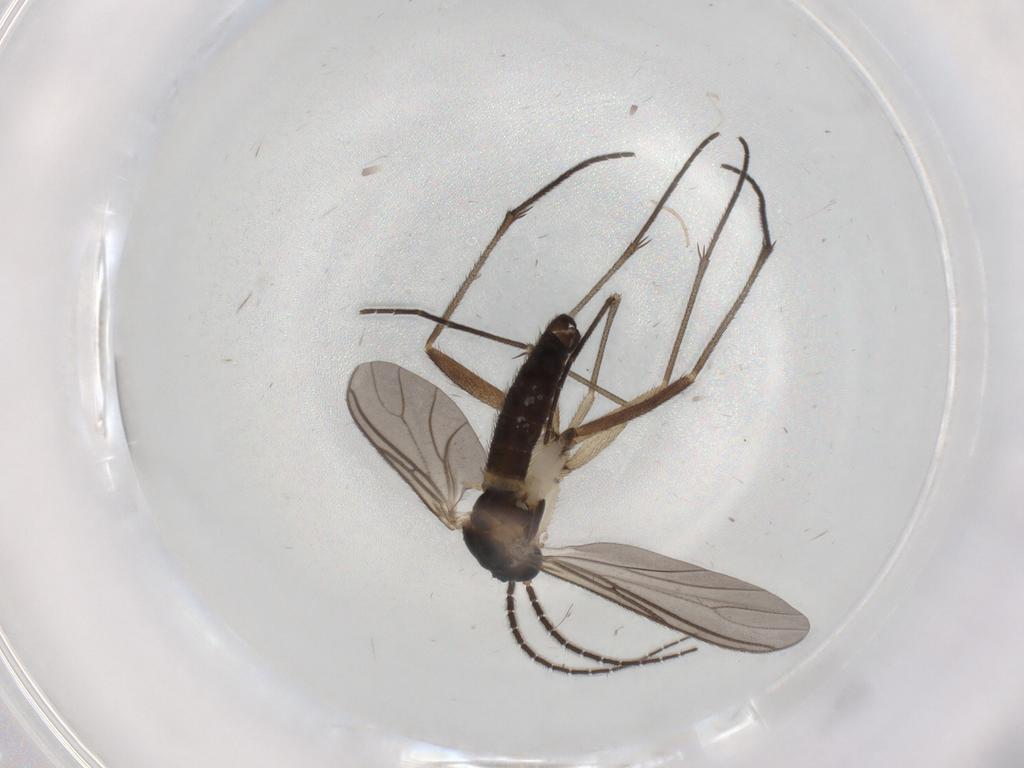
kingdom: Animalia
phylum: Arthropoda
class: Insecta
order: Diptera
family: Sciaridae
